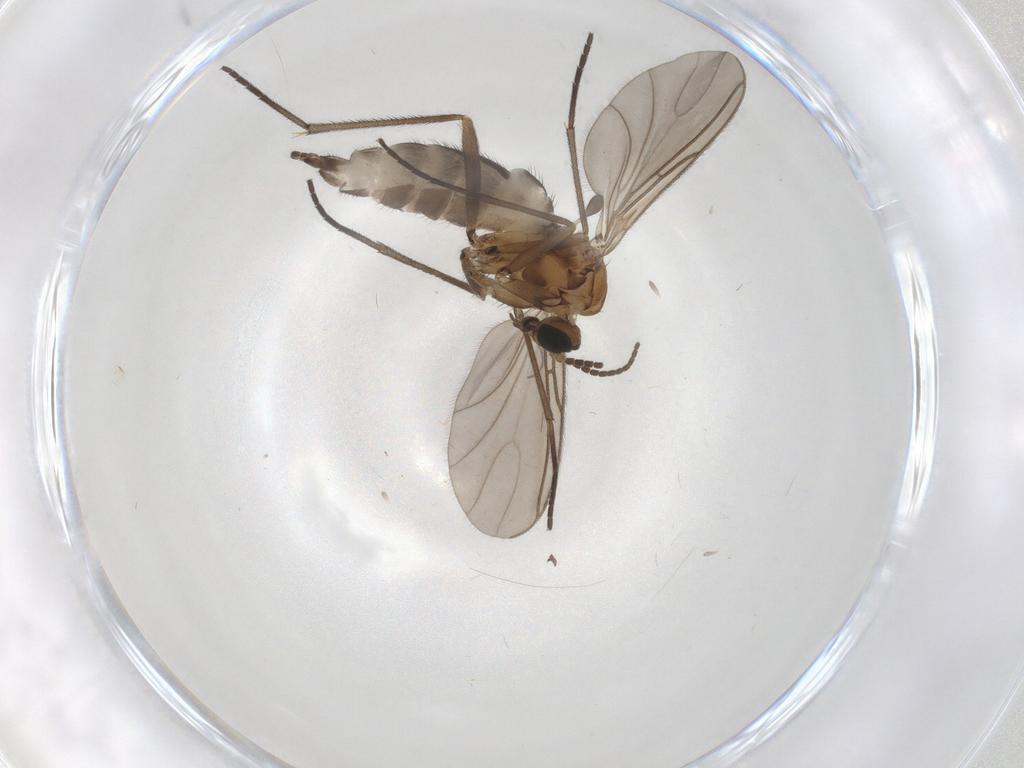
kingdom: Animalia
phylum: Arthropoda
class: Insecta
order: Diptera
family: Sciaridae
